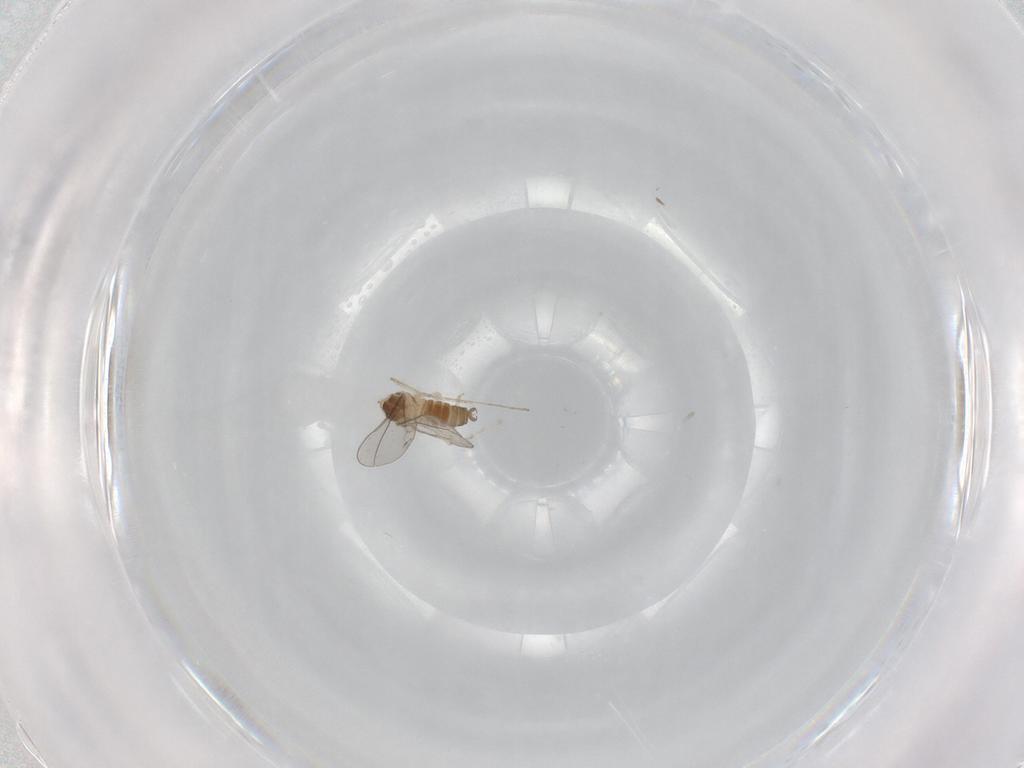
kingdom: Animalia
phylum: Arthropoda
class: Insecta
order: Diptera
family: Cecidomyiidae
